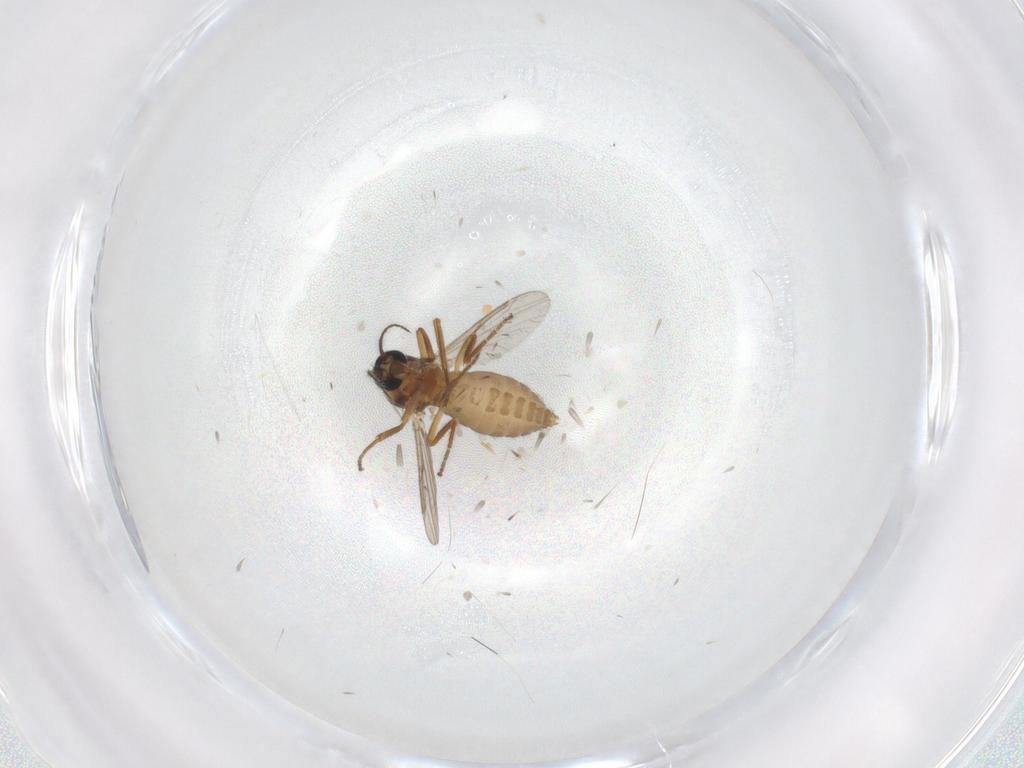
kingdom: Animalia
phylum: Arthropoda
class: Insecta
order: Diptera
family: Ceratopogonidae
